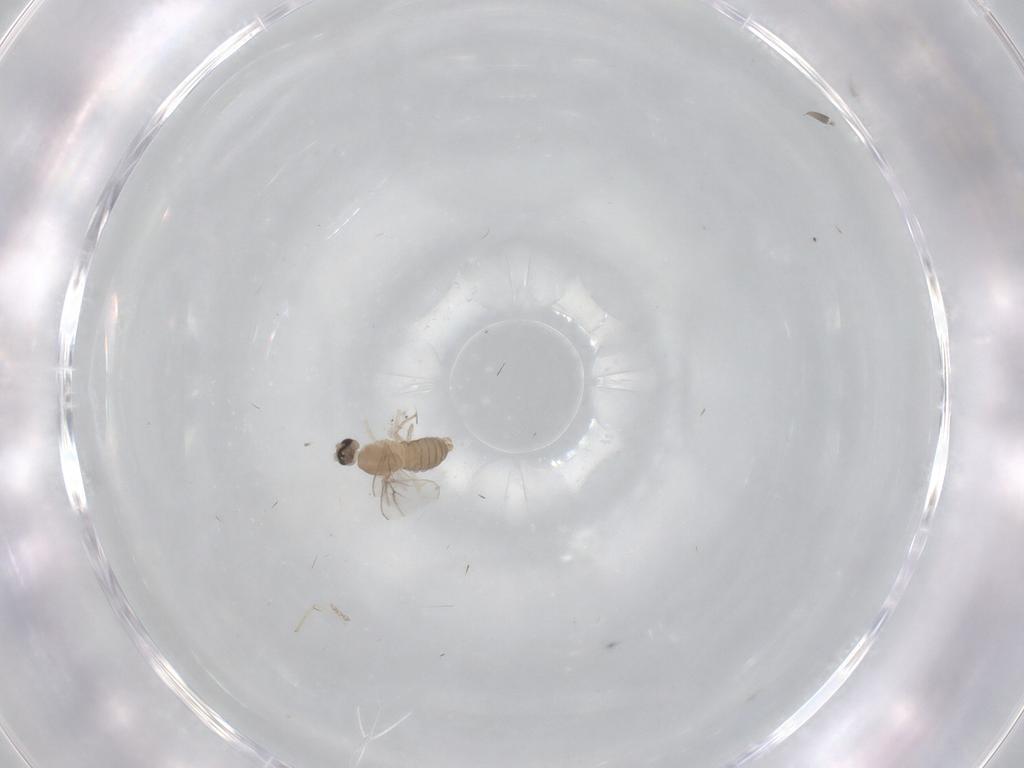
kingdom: Animalia
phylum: Arthropoda
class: Insecta
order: Diptera
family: Cecidomyiidae
